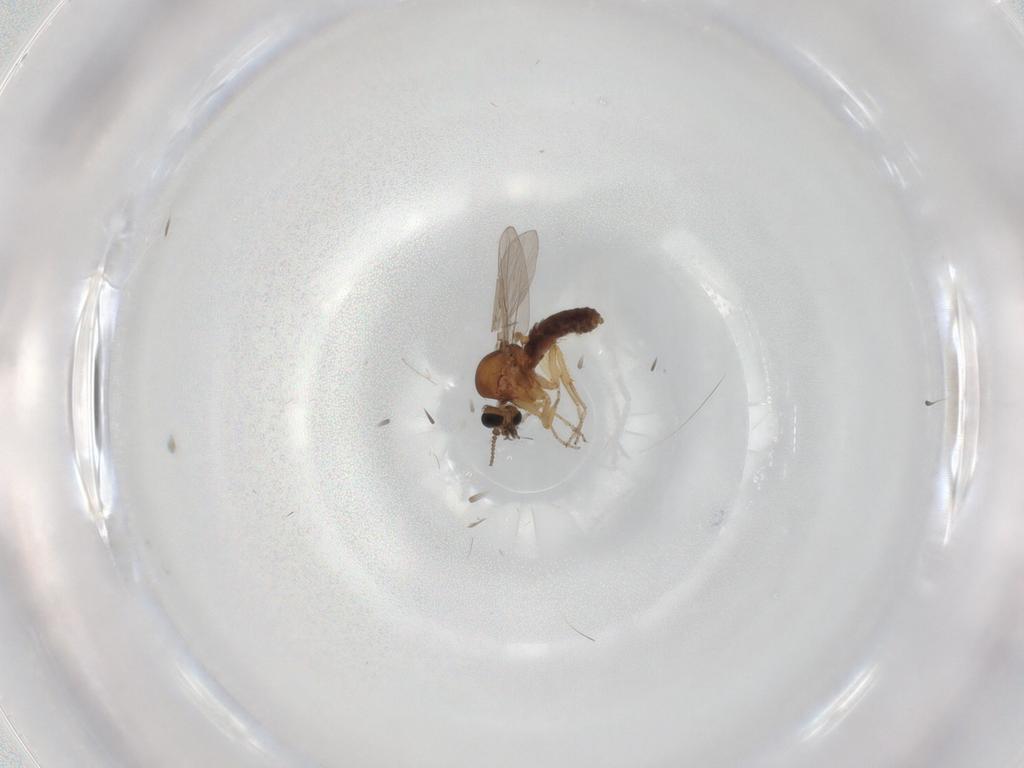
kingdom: Animalia
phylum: Arthropoda
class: Insecta
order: Diptera
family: Ceratopogonidae
